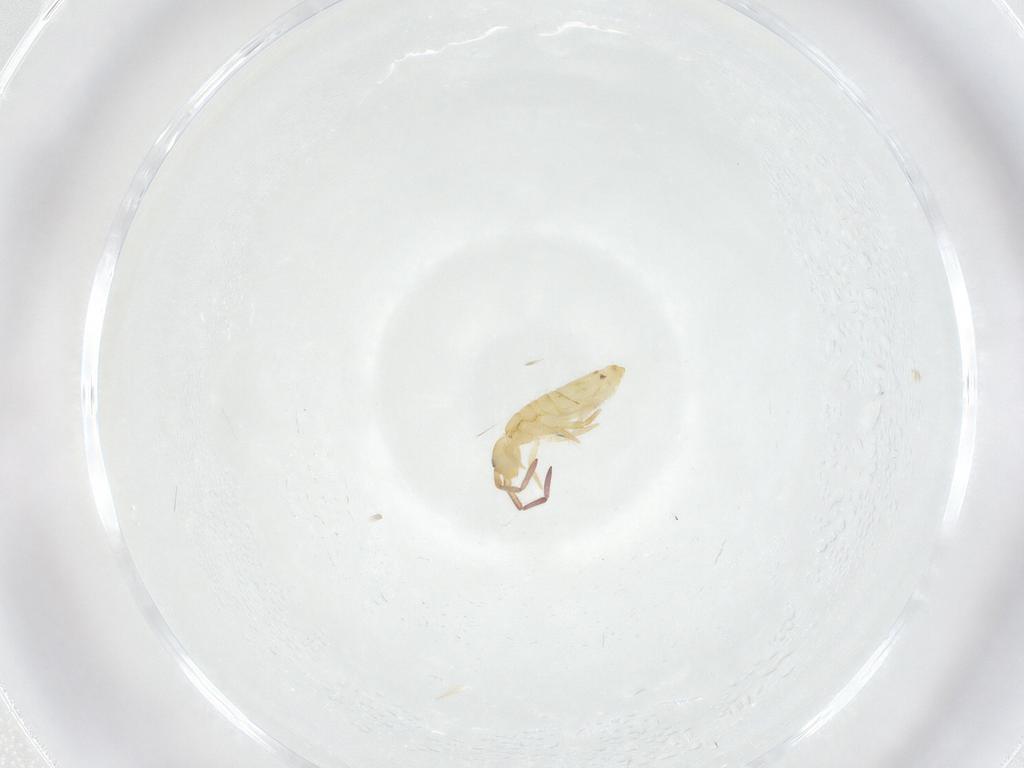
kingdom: Animalia
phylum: Arthropoda
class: Collembola
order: Entomobryomorpha
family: Entomobryidae
